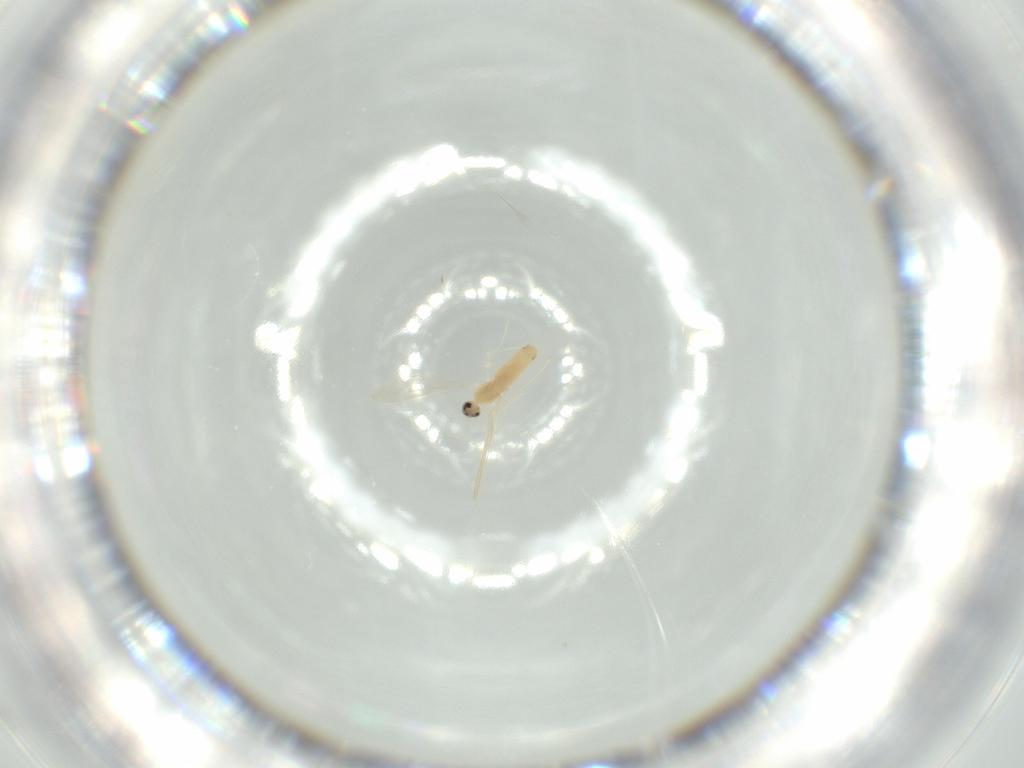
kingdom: Animalia
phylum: Arthropoda
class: Insecta
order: Diptera
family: Cecidomyiidae
